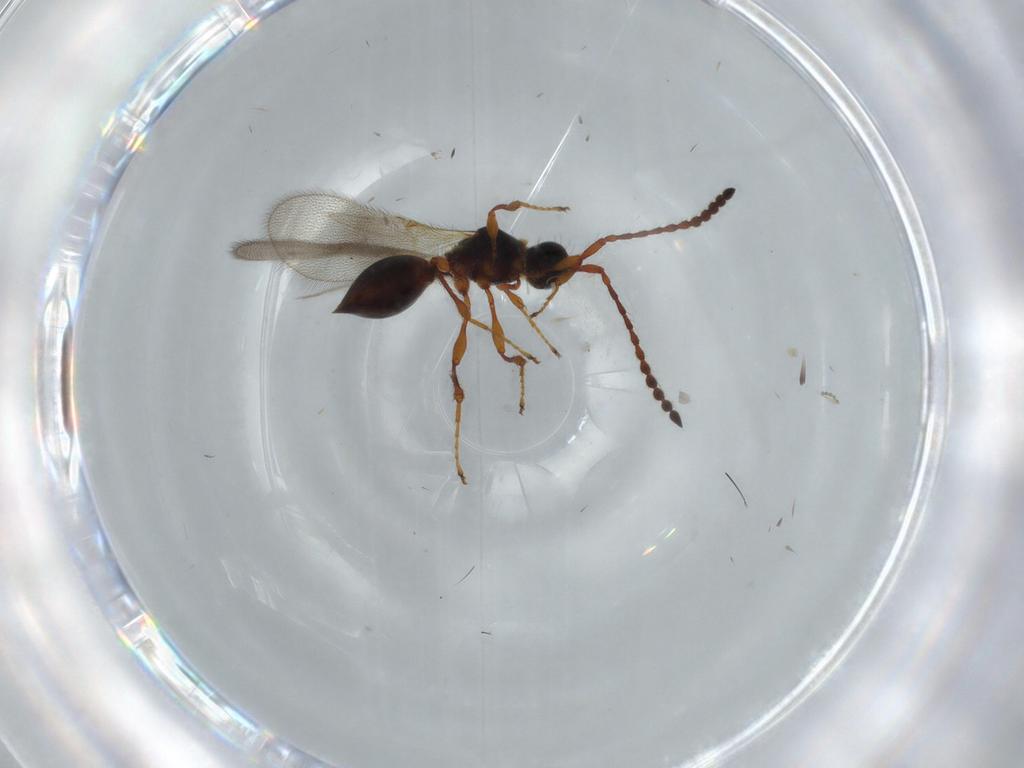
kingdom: Animalia
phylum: Arthropoda
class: Insecta
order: Hymenoptera
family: Diapriidae
